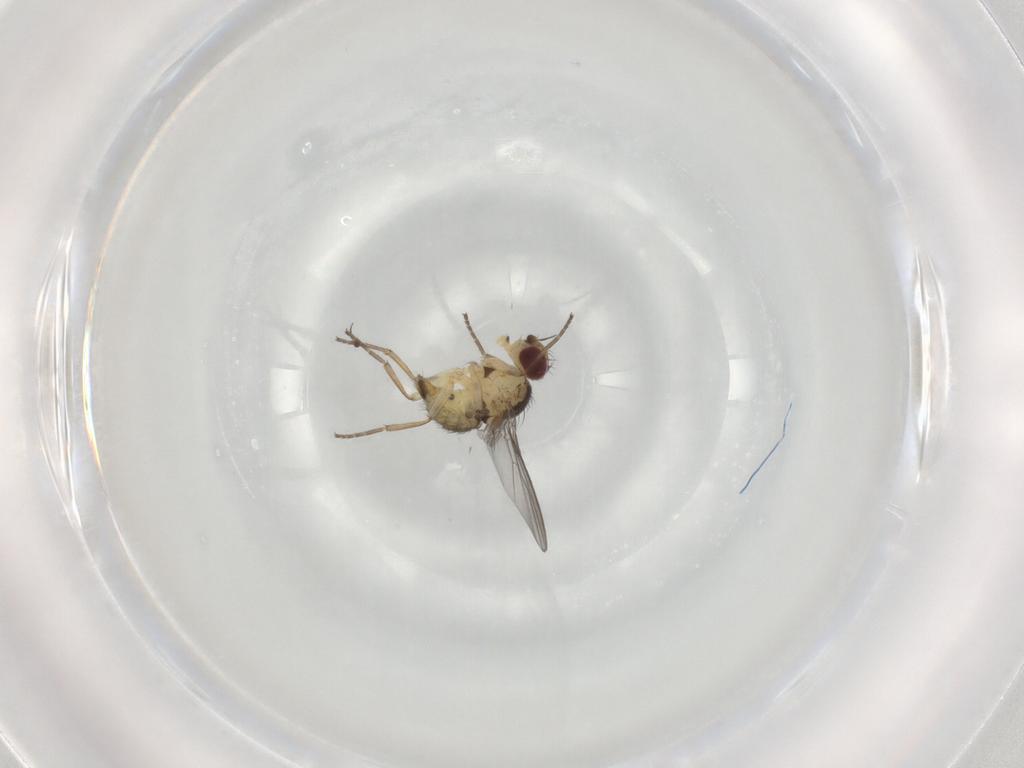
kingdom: Animalia
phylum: Arthropoda
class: Insecta
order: Diptera
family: Agromyzidae
